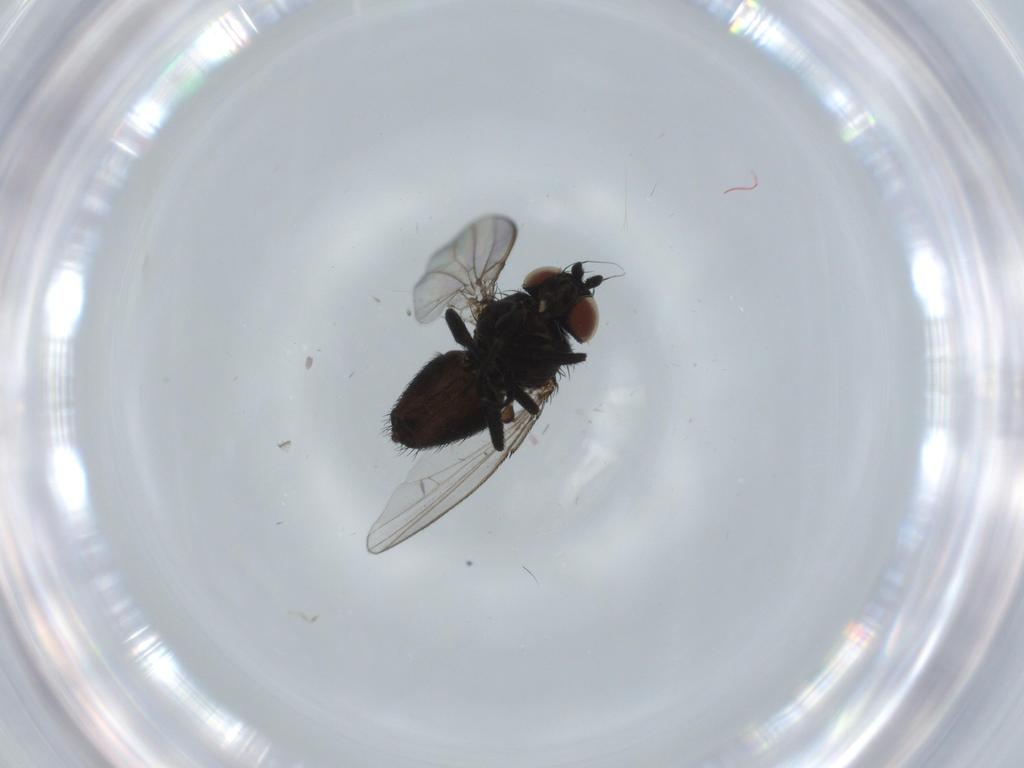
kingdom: Animalia
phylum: Arthropoda
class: Insecta
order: Diptera
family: Milichiidae
